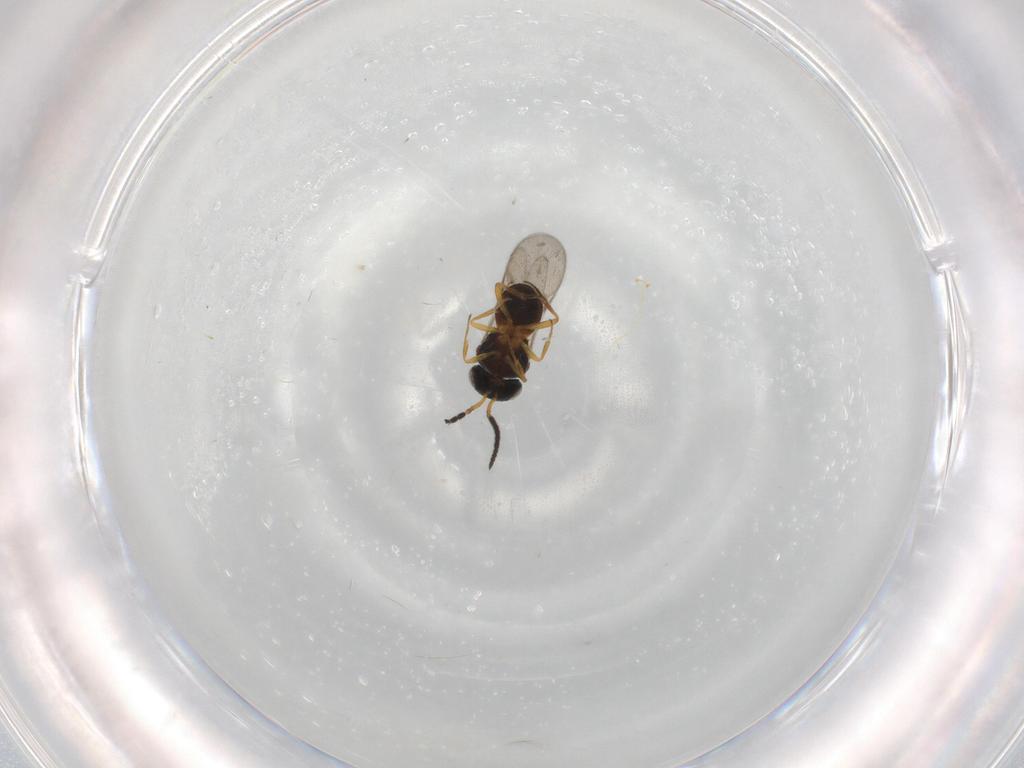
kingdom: Animalia
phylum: Arthropoda
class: Insecta
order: Coleoptera
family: Curculionidae
